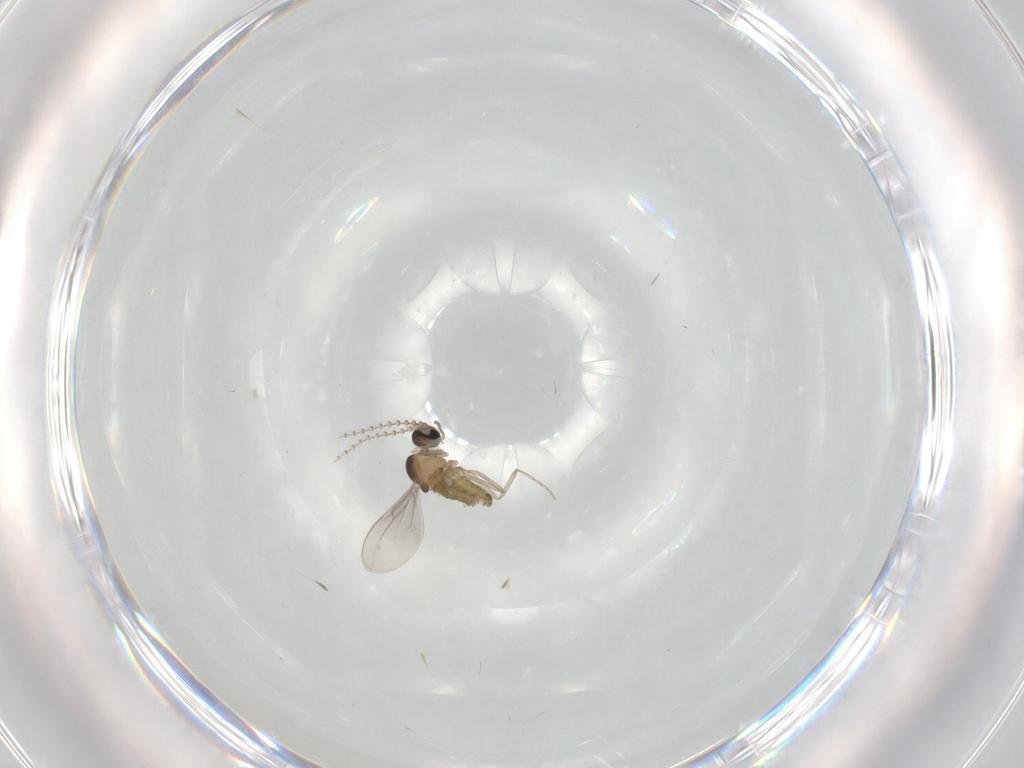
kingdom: Animalia
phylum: Arthropoda
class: Insecta
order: Diptera
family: Cecidomyiidae
